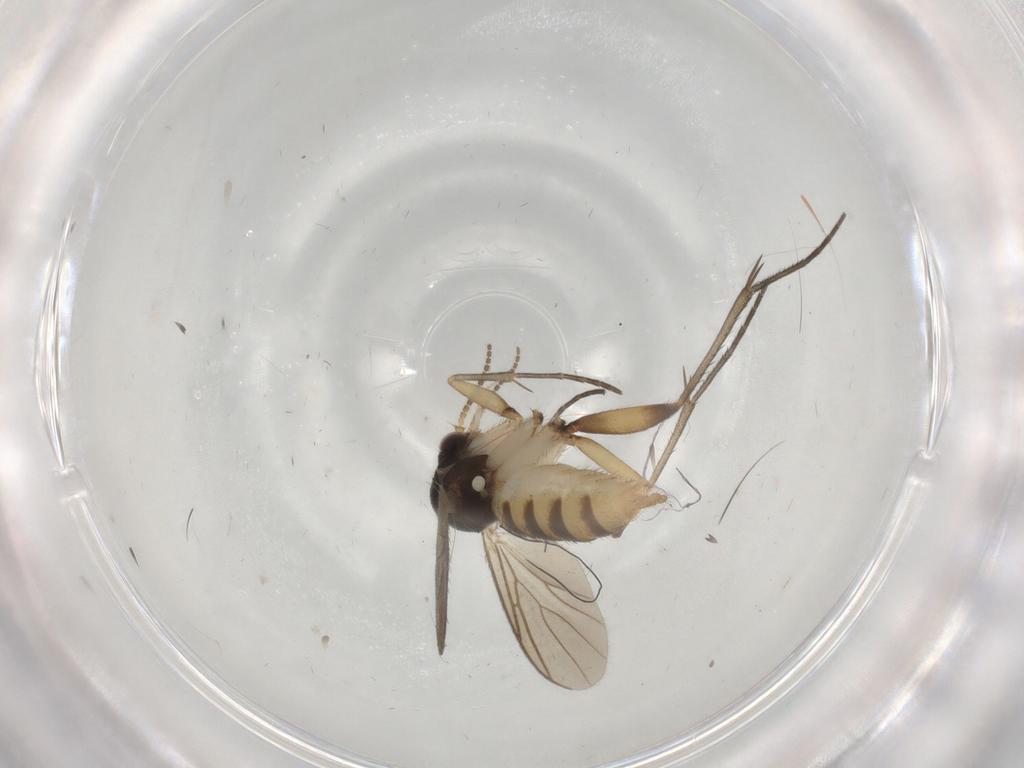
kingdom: Animalia
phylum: Arthropoda
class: Insecta
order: Diptera
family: Mycetophilidae
